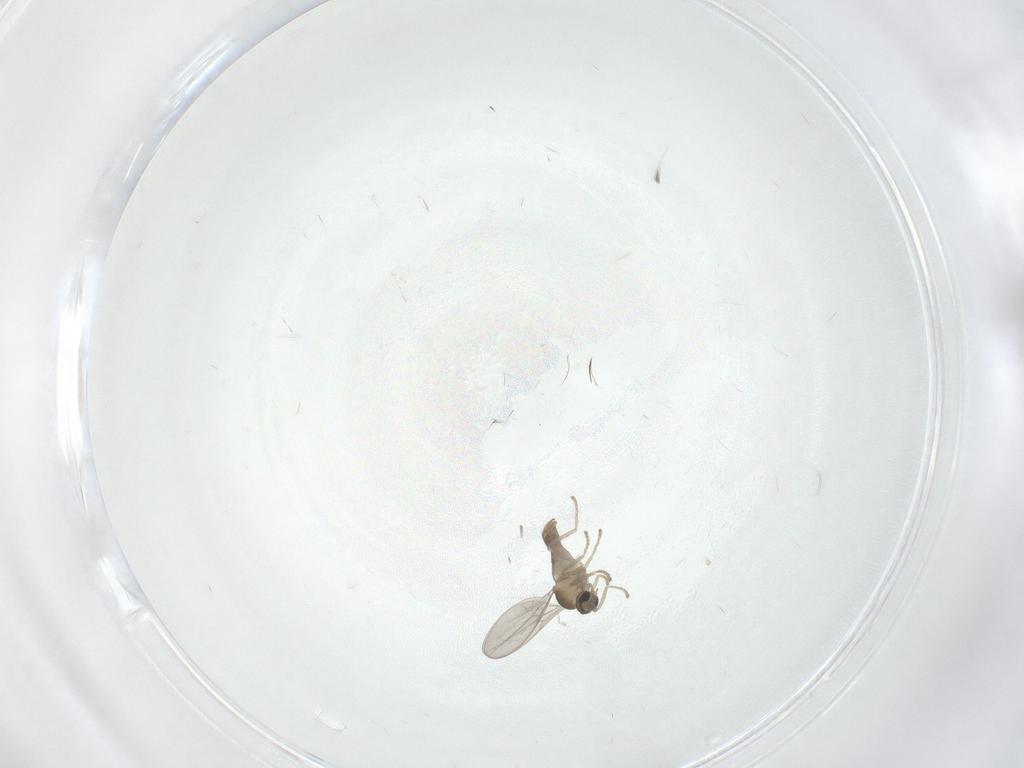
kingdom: Animalia
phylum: Arthropoda
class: Insecta
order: Diptera
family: Cecidomyiidae
